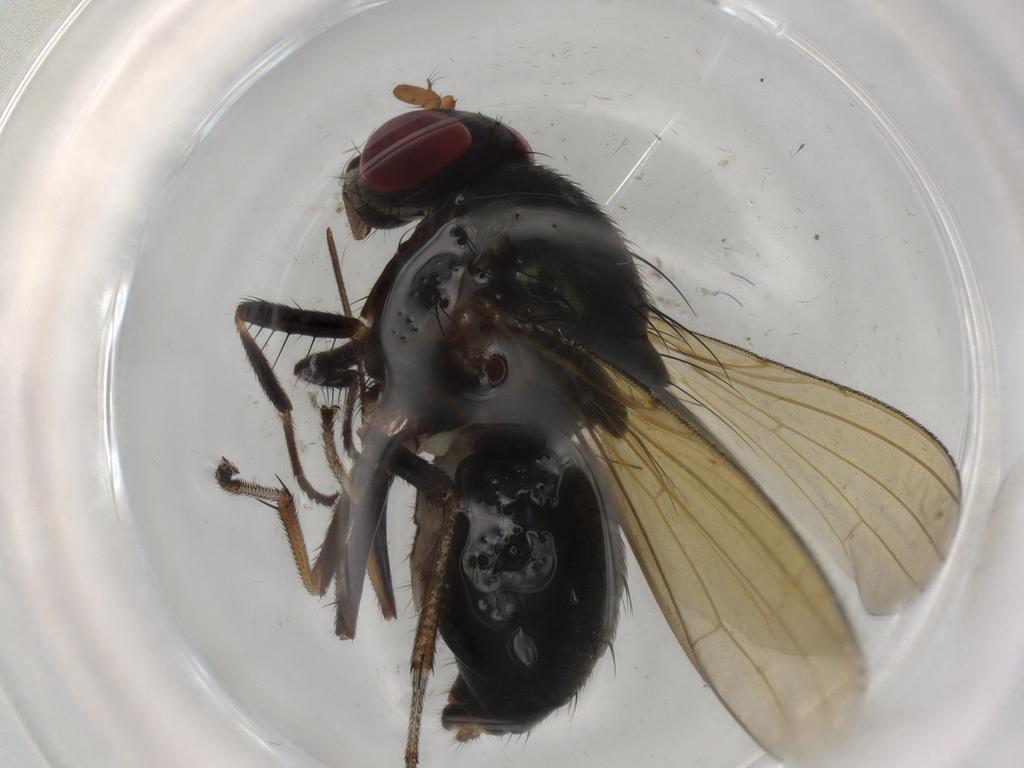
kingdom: Animalia
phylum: Arthropoda
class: Insecta
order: Diptera
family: Lauxaniidae
